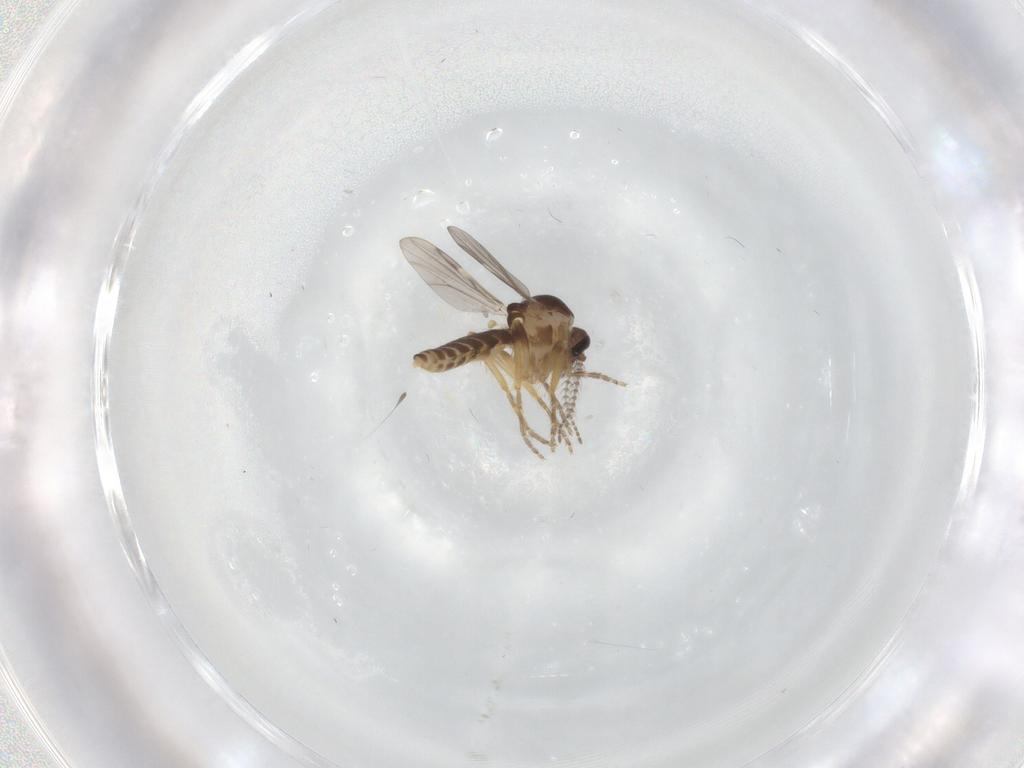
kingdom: Animalia
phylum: Arthropoda
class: Insecta
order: Diptera
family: Ceratopogonidae
